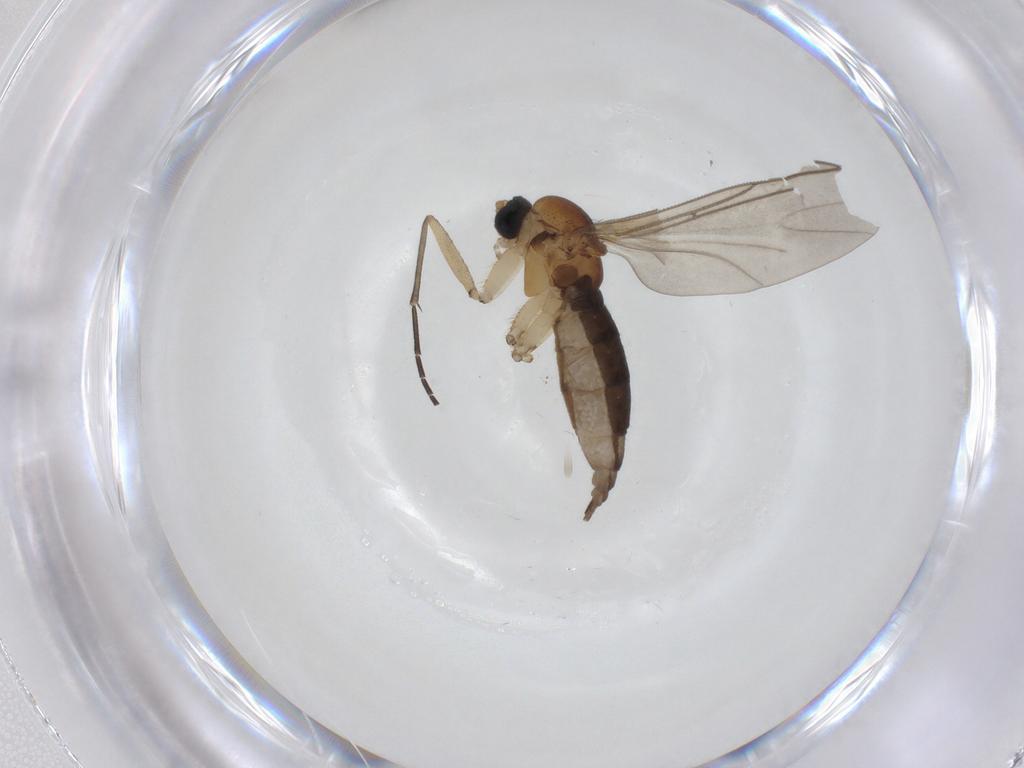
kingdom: Animalia
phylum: Arthropoda
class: Insecta
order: Diptera
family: Sciaridae
